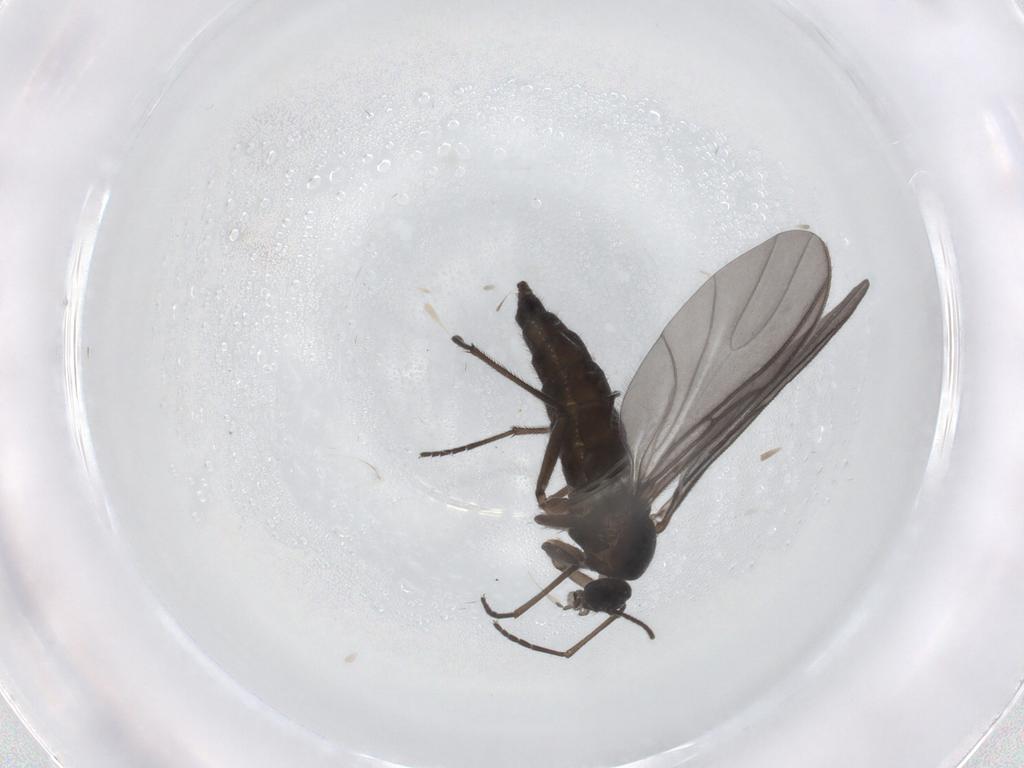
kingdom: Animalia
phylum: Arthropoda
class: Insecta
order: Diptera
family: Sciaridae
